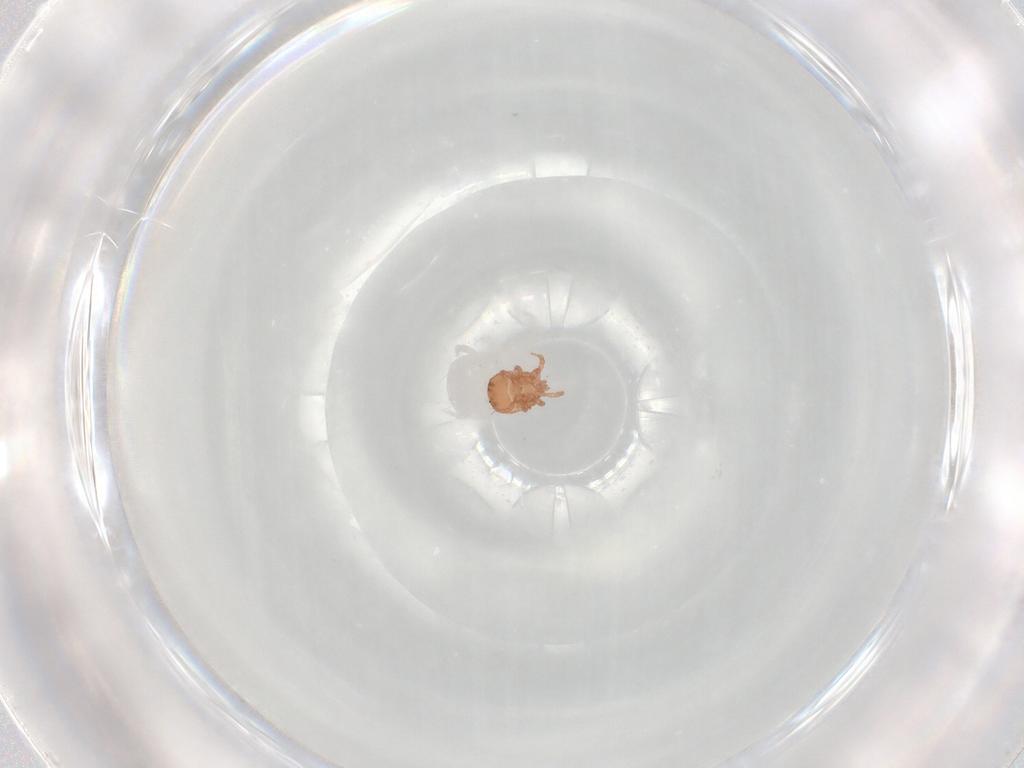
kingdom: Animalia
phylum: Arthropoda
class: Arachnida
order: Mesostigmata
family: Zerconidae
